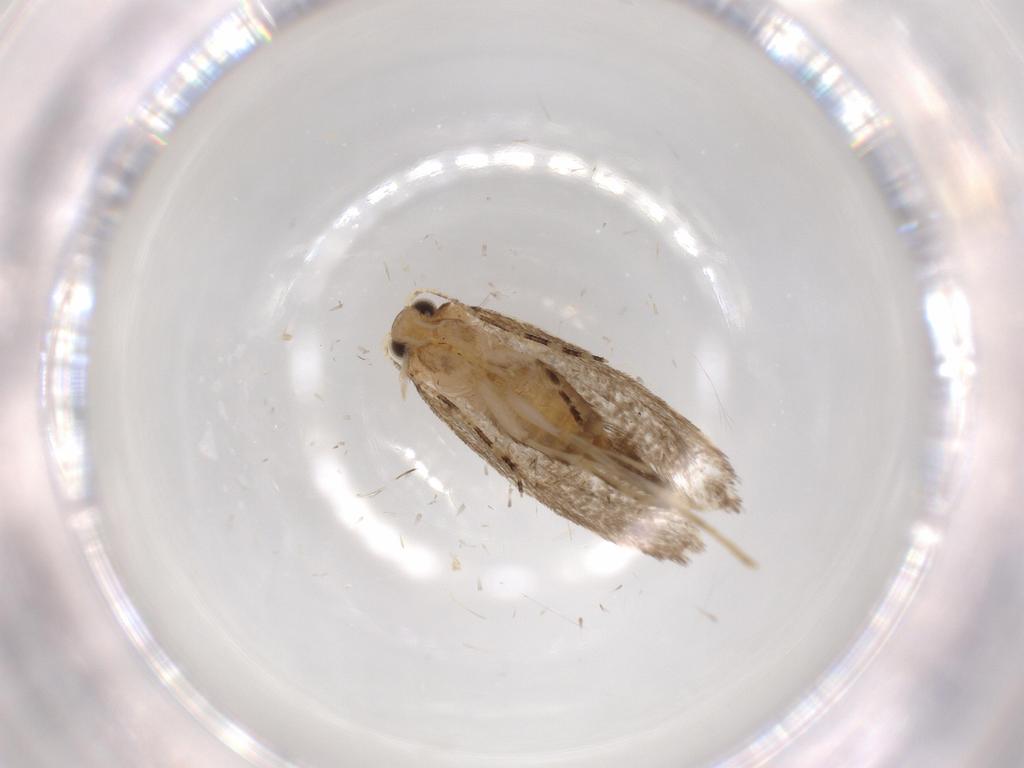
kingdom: Animalia
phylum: Arthropoda
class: Insecta
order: Lepidoptera
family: Tineidae
